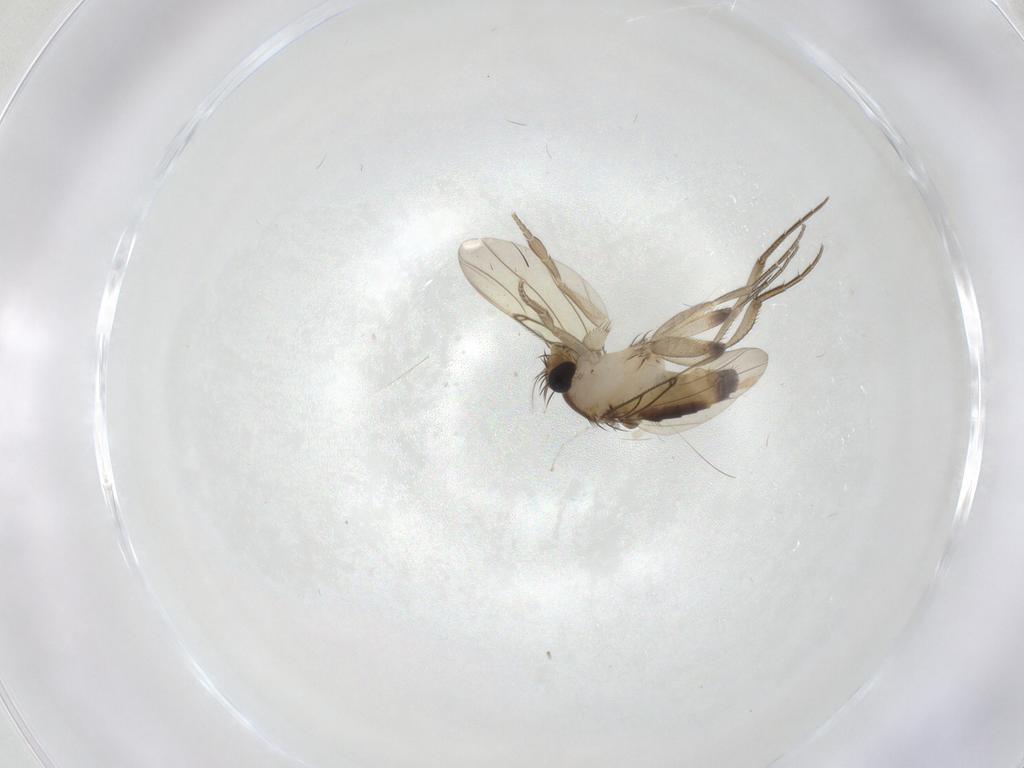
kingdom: Animalia
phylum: Arthropoda
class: Insecta
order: Diptera
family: Phoridae
